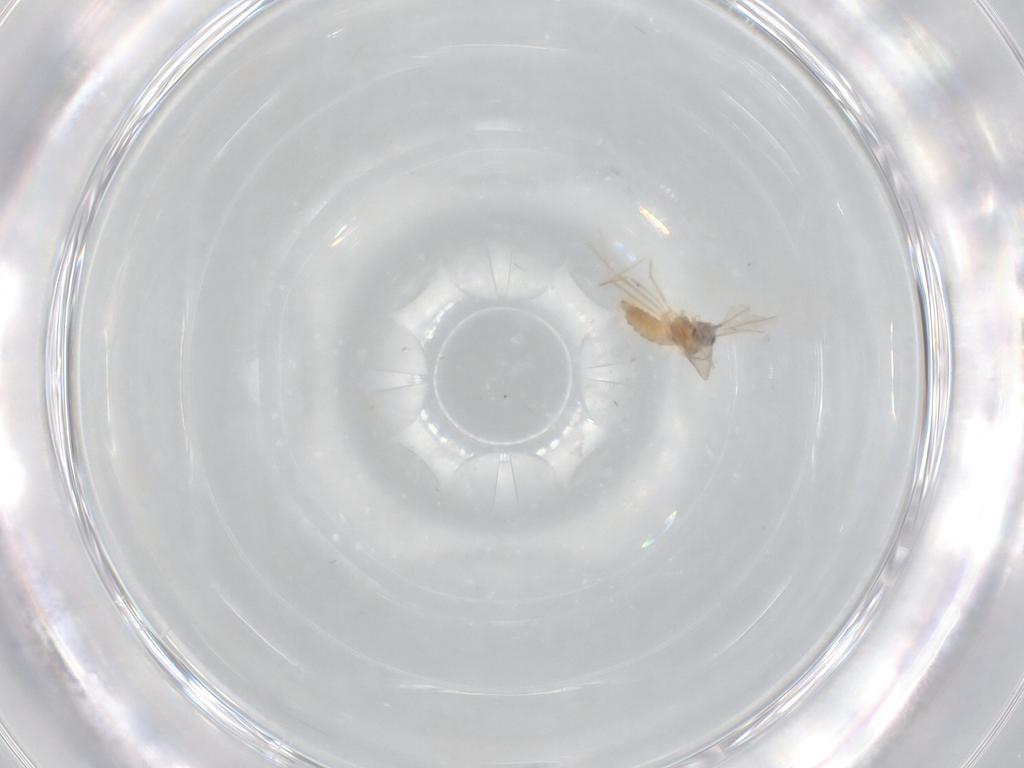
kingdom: Animalia
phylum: Arthropoda
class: Insecta
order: Diptera
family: Cecidomyiidae
